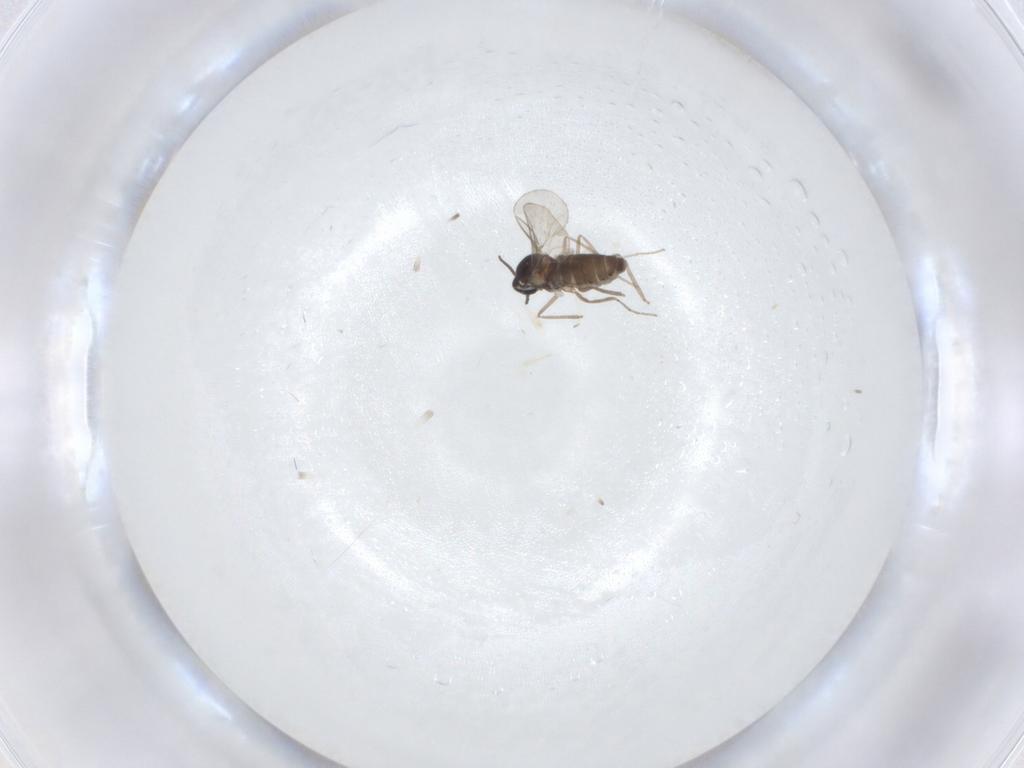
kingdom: Animalia
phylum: Arthropoda
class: Insecta
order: Diptera
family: Cecidomyiidae
